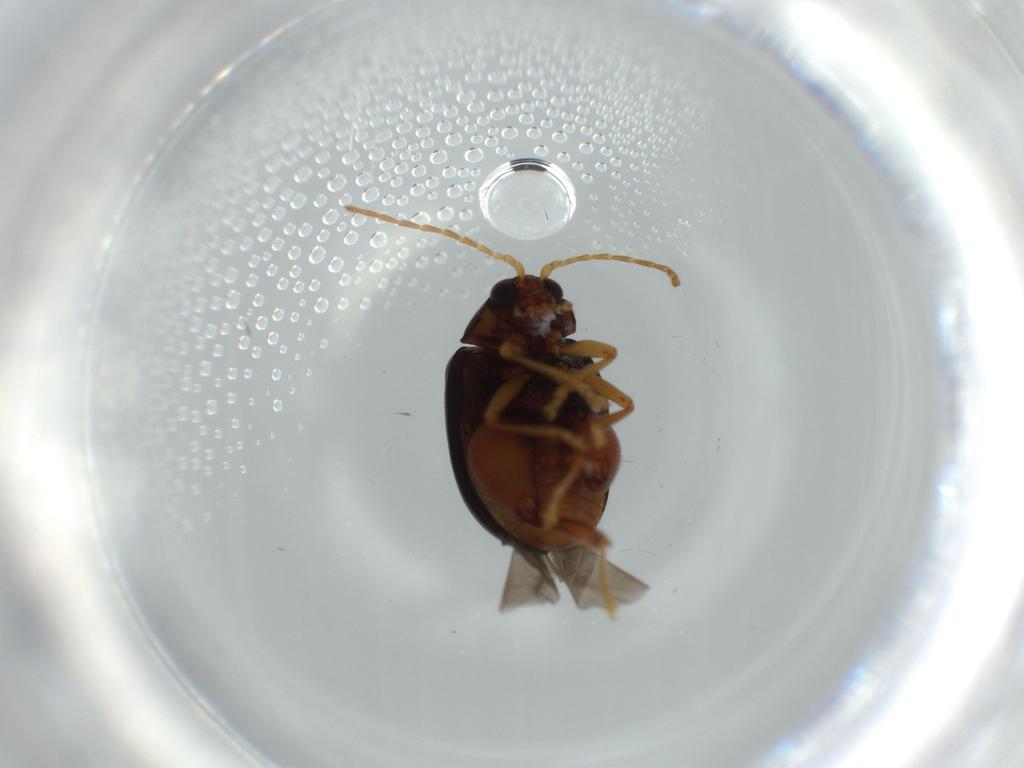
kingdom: Animalia
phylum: Arthropoda
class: Insecta
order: Coleoptera
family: Chrysomelidae
